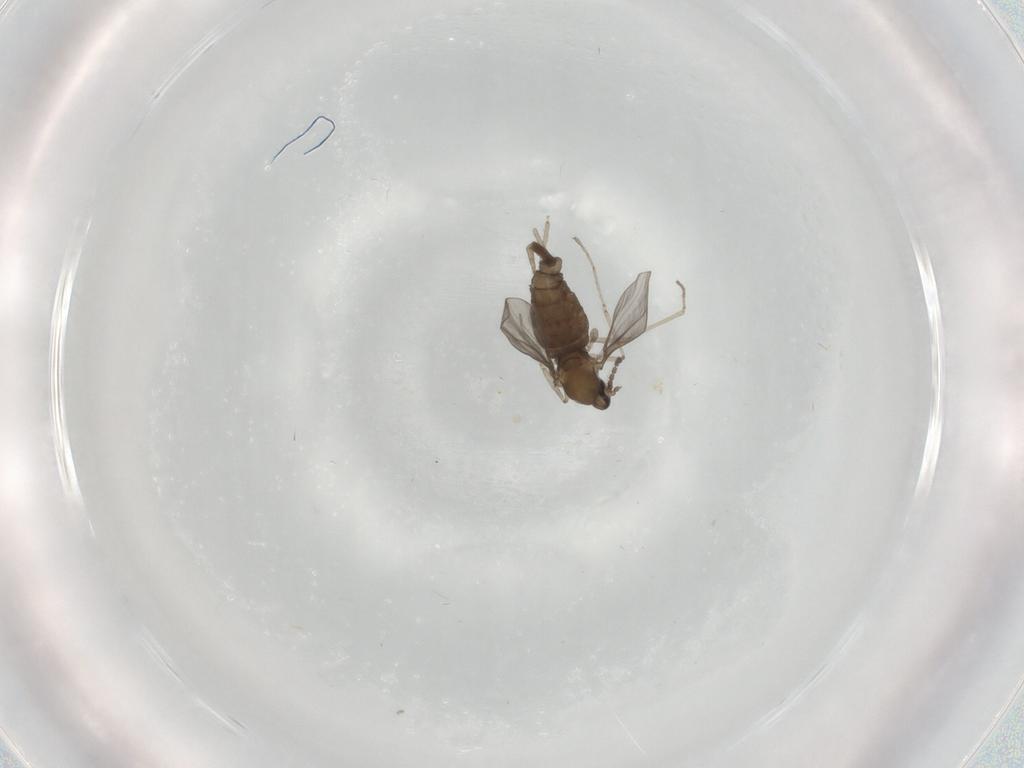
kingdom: Animalia
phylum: Arthropoda
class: Insecta
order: Diptera
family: Cecidomyiidae
